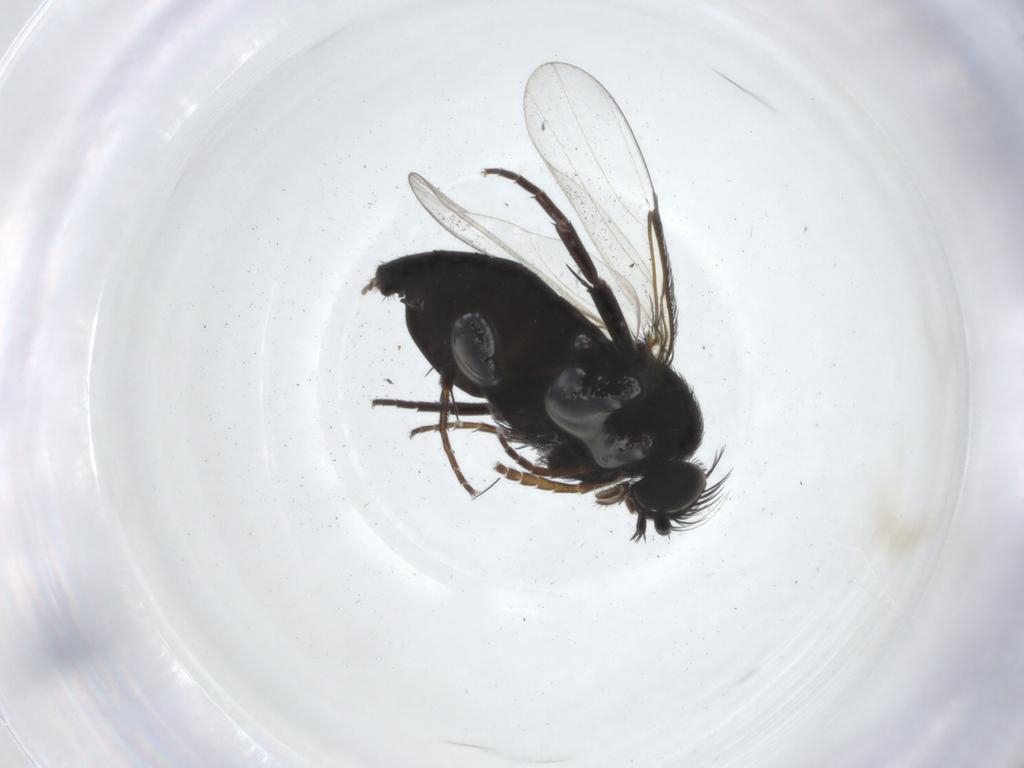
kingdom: Animalia
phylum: Arthropoda
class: Insecta
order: Diptera
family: Phoridae
